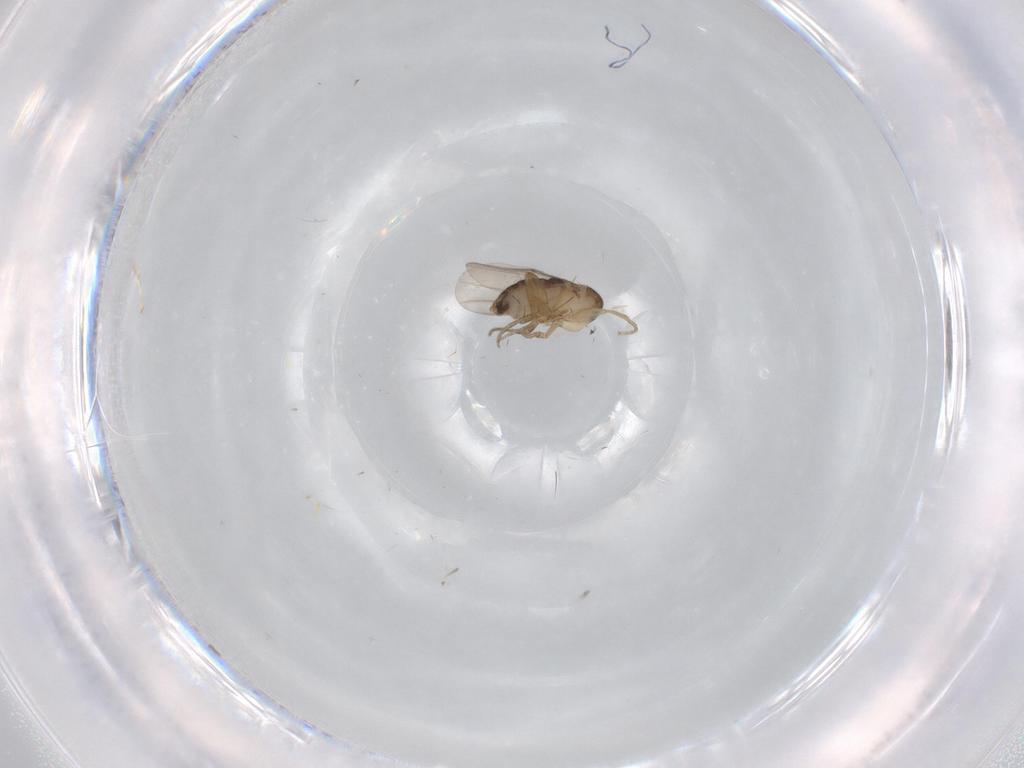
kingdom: Animalia
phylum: Arthropoda
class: Insecta
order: Diptera
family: Phoridae
